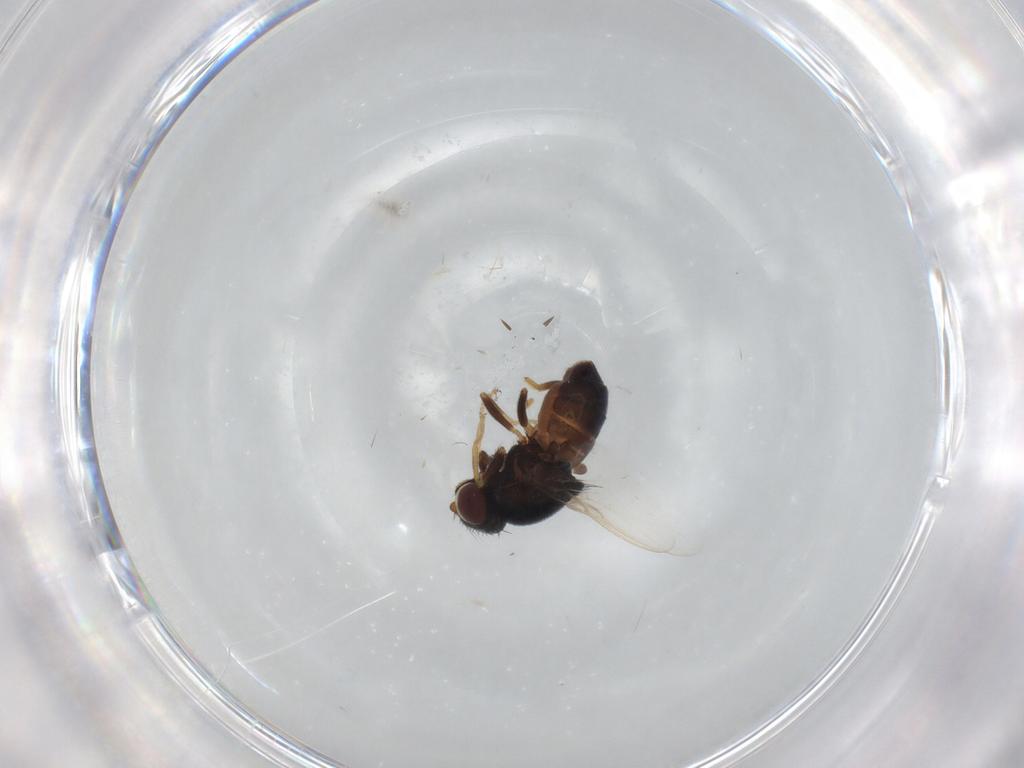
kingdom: Animalia
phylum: Arthropoda
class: Insecta
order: Diptera
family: Chloropidae
